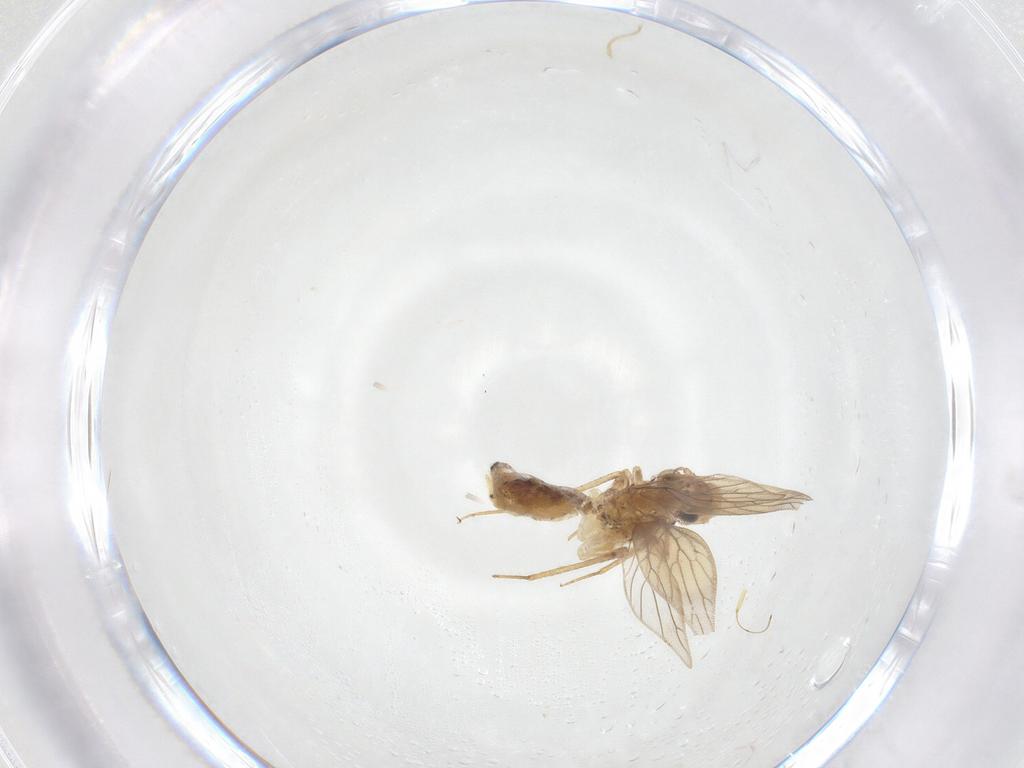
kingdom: Animalia
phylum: Arthropoda
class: Insecta
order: Psocodea
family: Lepidopsocidae
